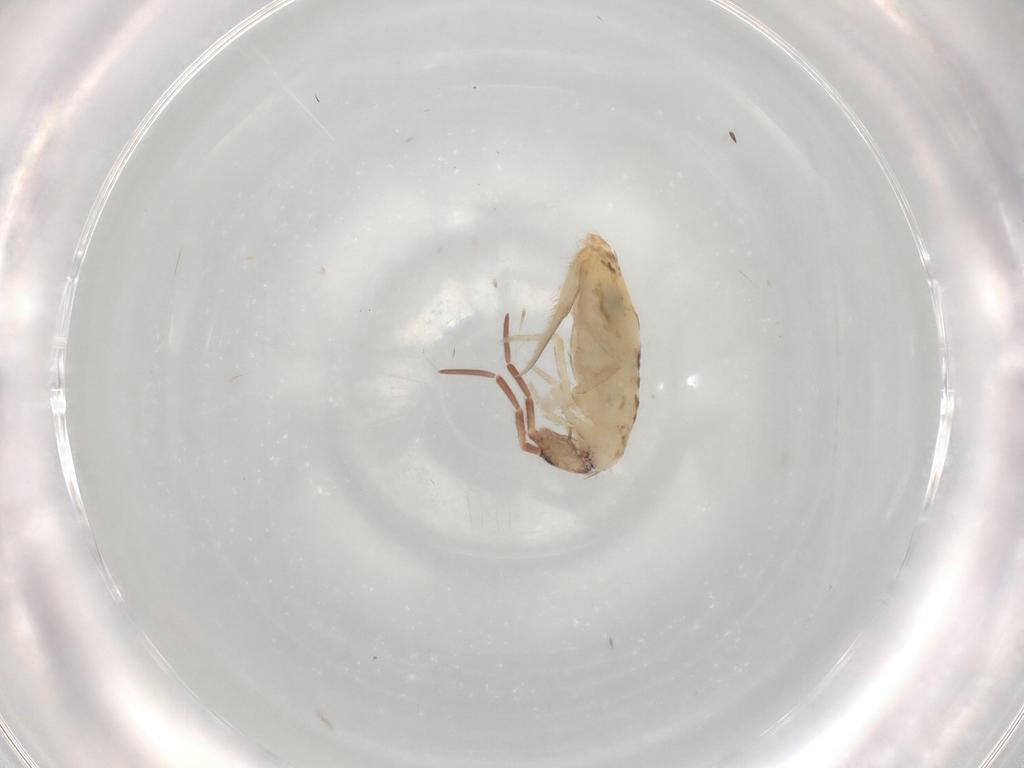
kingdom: Animalia
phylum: Arthropoda
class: Collembola
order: Entomobryomorpha
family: Entomobryidae
